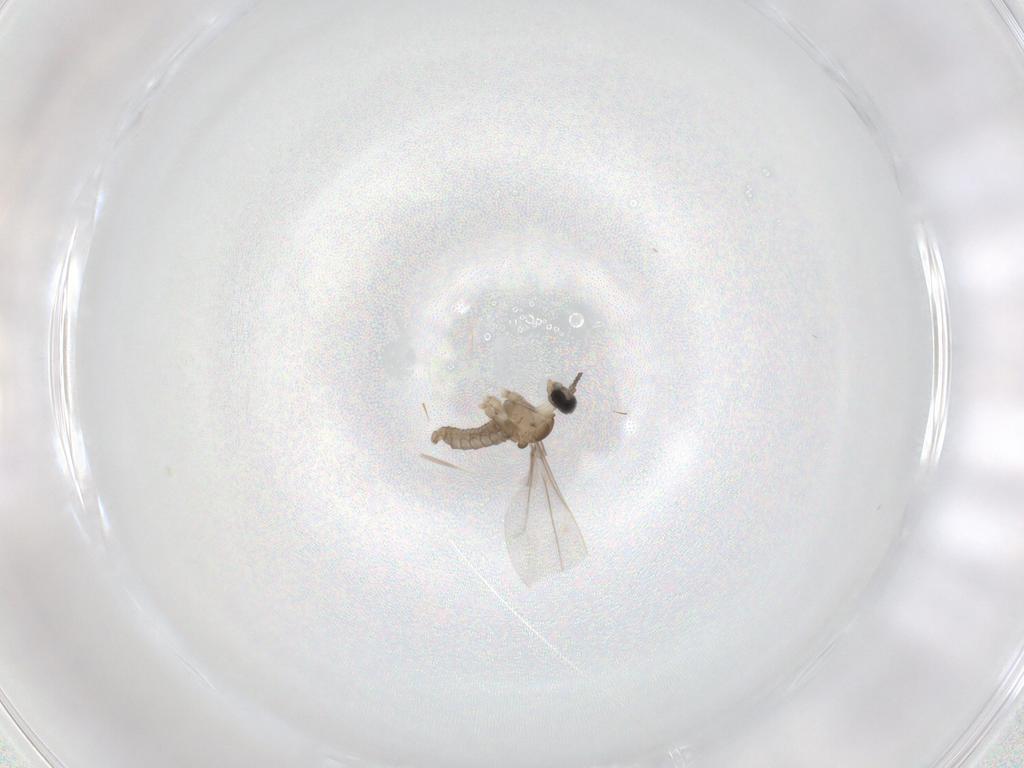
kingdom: Animalia
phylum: Arthropoda
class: Insecta
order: Diptera
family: Cecidomyiidae
